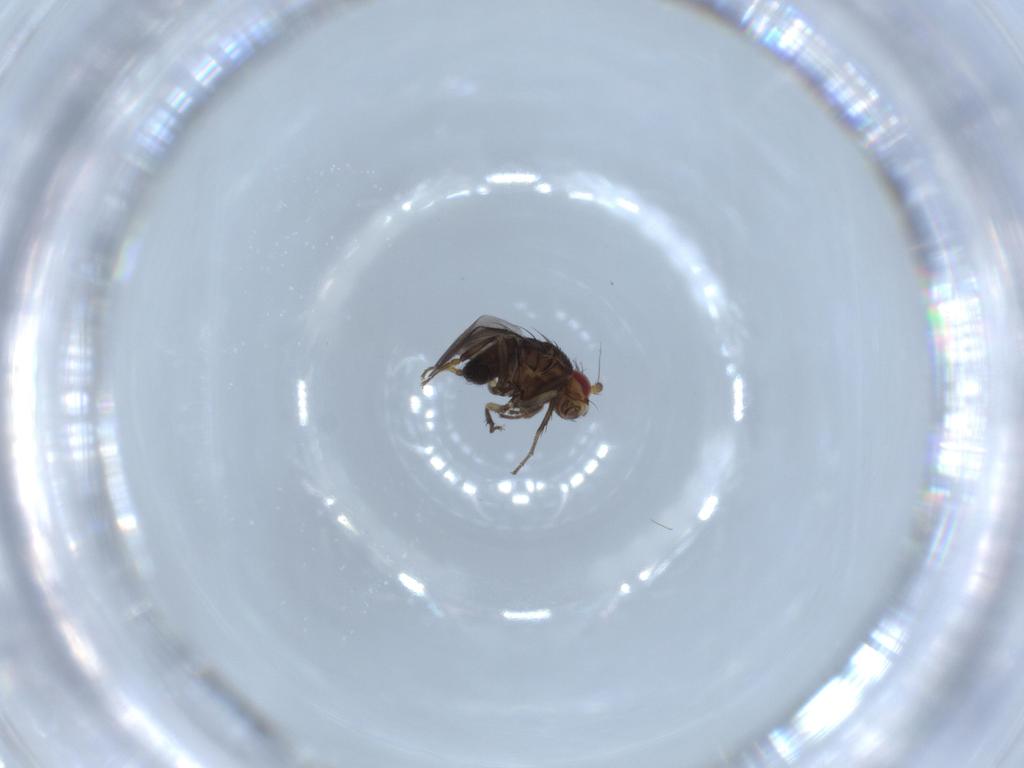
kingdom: Animalia
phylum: Arthropoda
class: Insecta
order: Diptera
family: Sphaeroceridae
